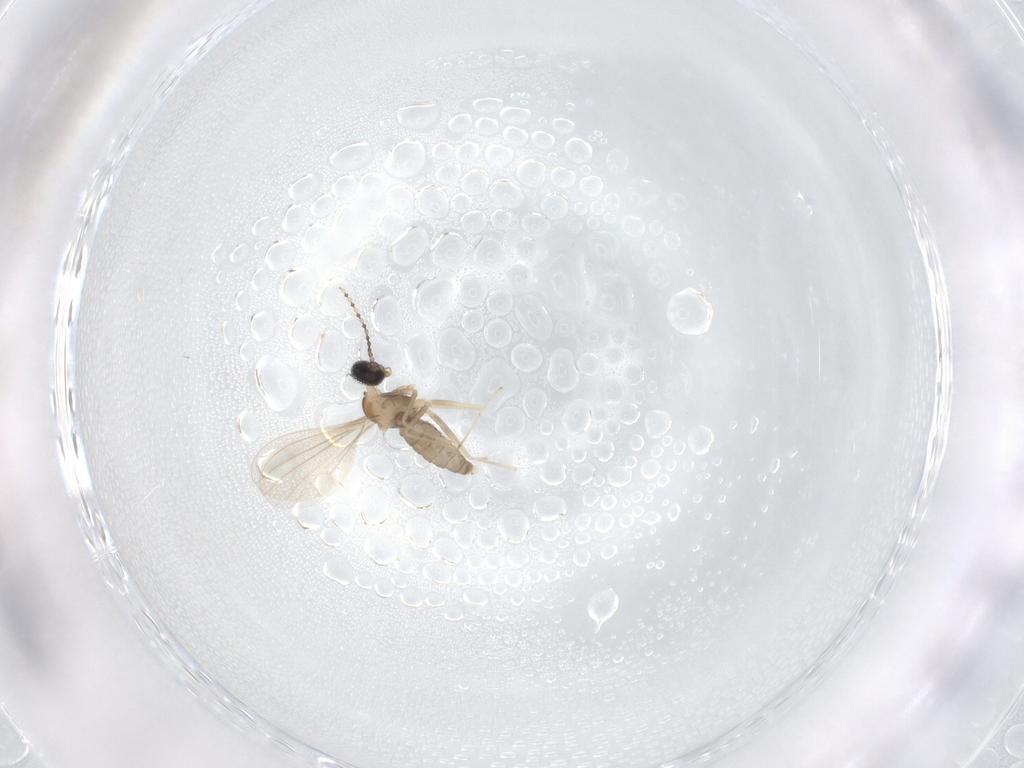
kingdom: Animalia
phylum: Arthropoda
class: Insecta
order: Diptera
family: Cecidomyiidae
